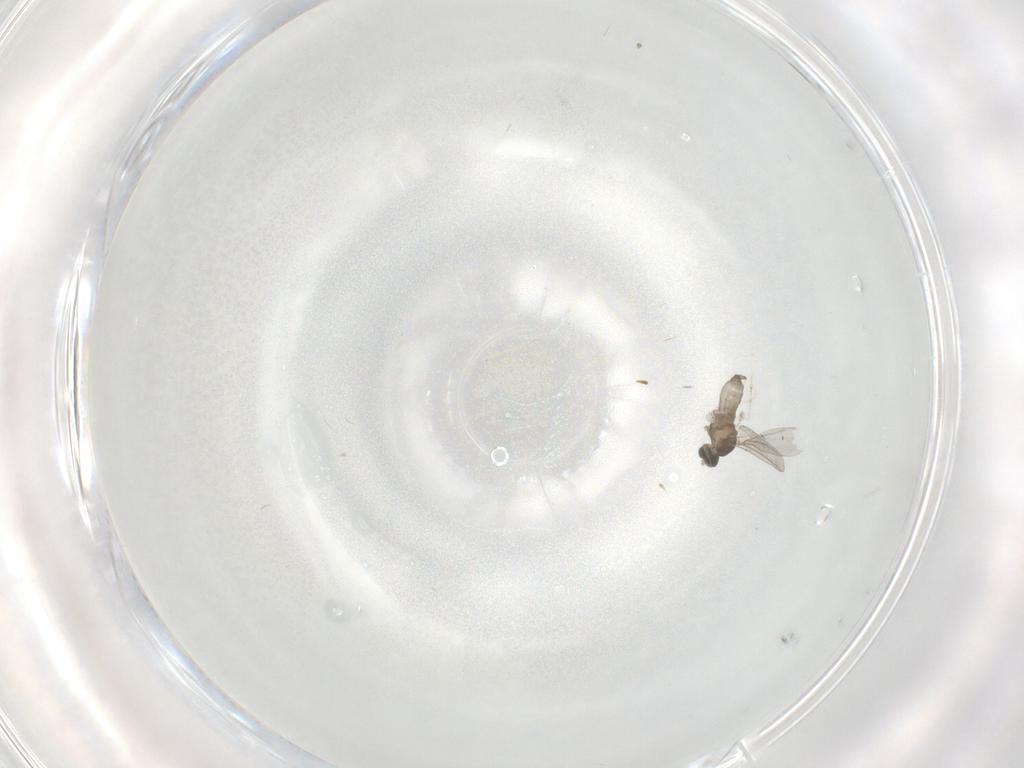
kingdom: Animalia
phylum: Arthropoda
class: Insecta
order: Diptera
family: Cecidomyiidae
